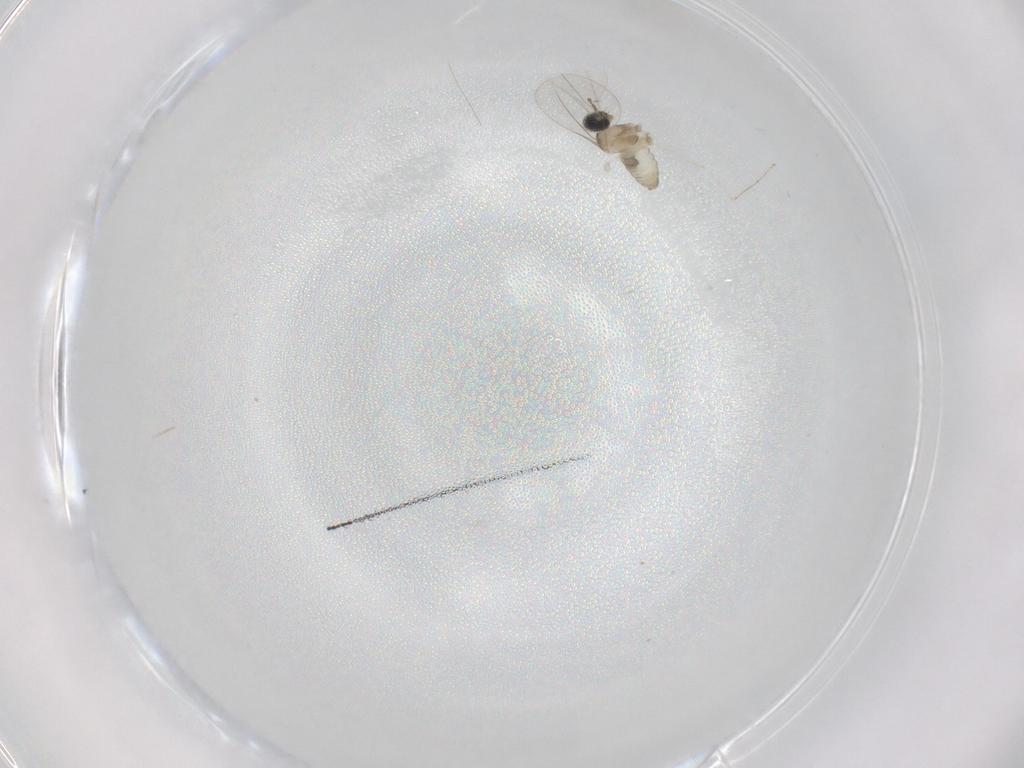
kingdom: Animalia
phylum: Arthropoda
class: Insecta
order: Diptera
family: Cecidomyiidae
